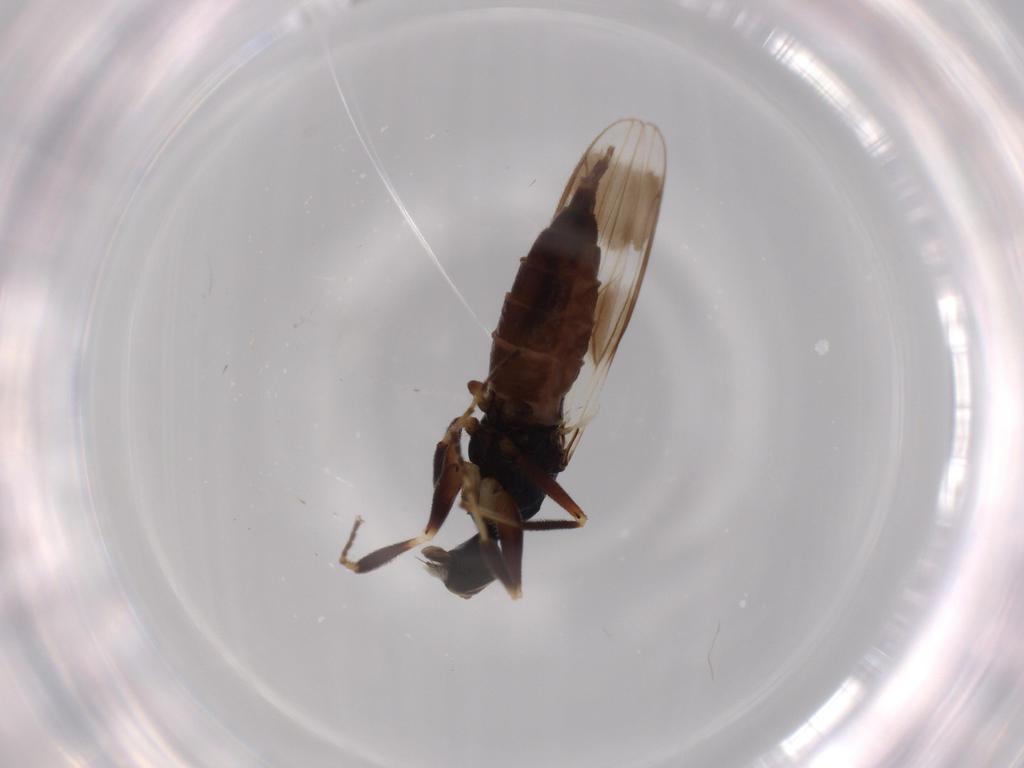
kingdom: Animalia
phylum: Arthropoda
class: Insecta
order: Diptera
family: Hybotidae
